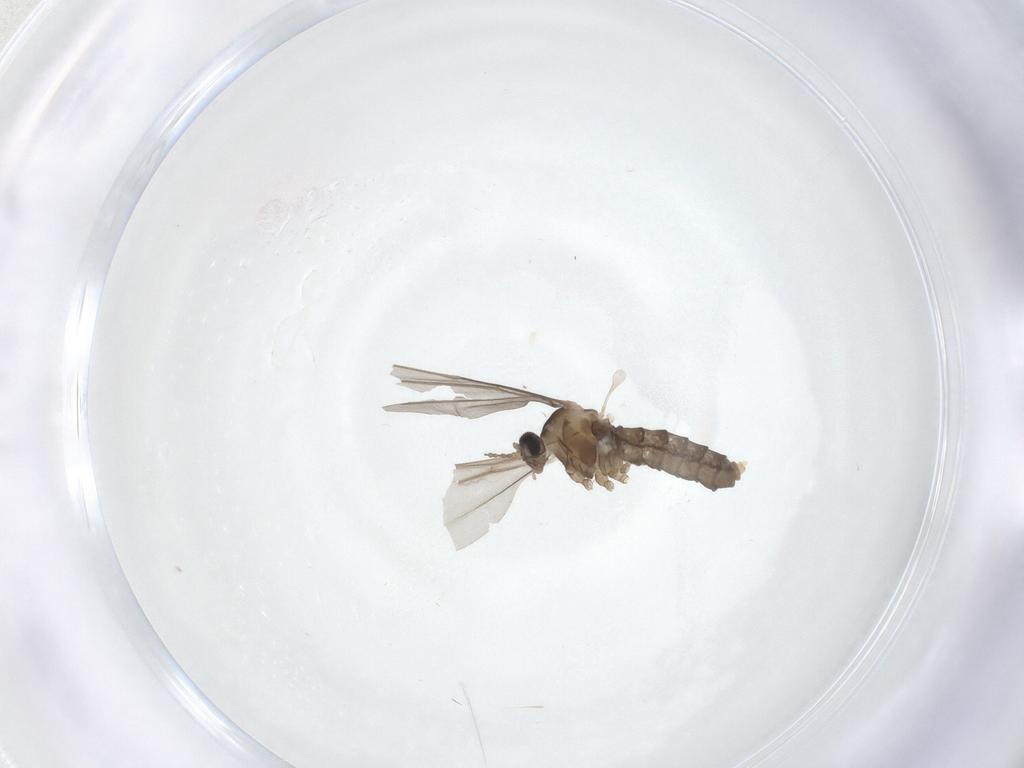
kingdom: Animalia
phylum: Arthropoda
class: Insecta
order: Diptera
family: Cecidomyiidae
